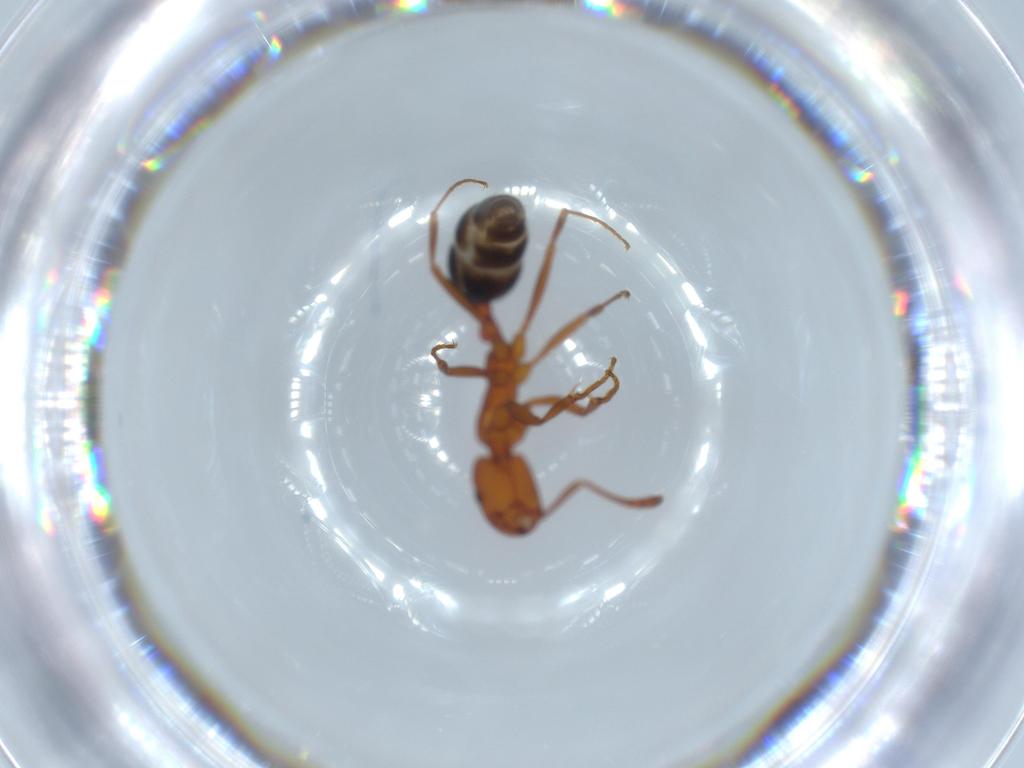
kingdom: Animalia
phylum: Arthropoda
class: Insecta
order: Hymenoptera
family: Formicidae
